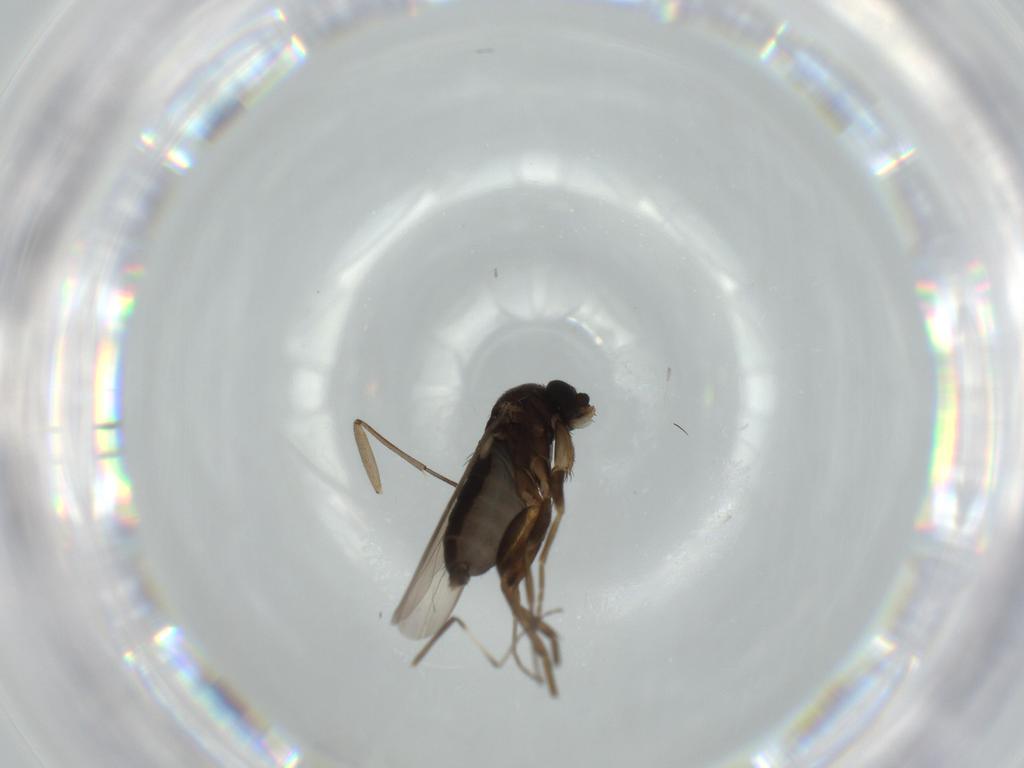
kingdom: Animalia
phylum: Arthropoda
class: Insecta
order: Diptera
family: Phoridae
